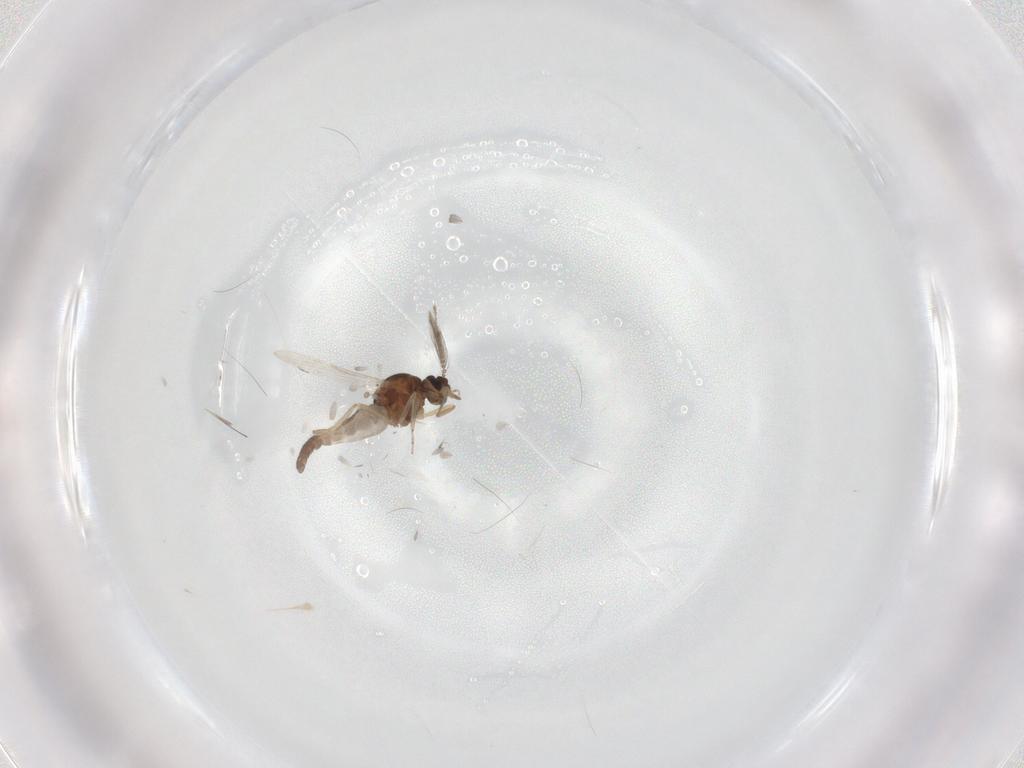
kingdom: Animalia
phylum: Arthropoda
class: Insecta
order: Diptera
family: Ceratopogonidae
